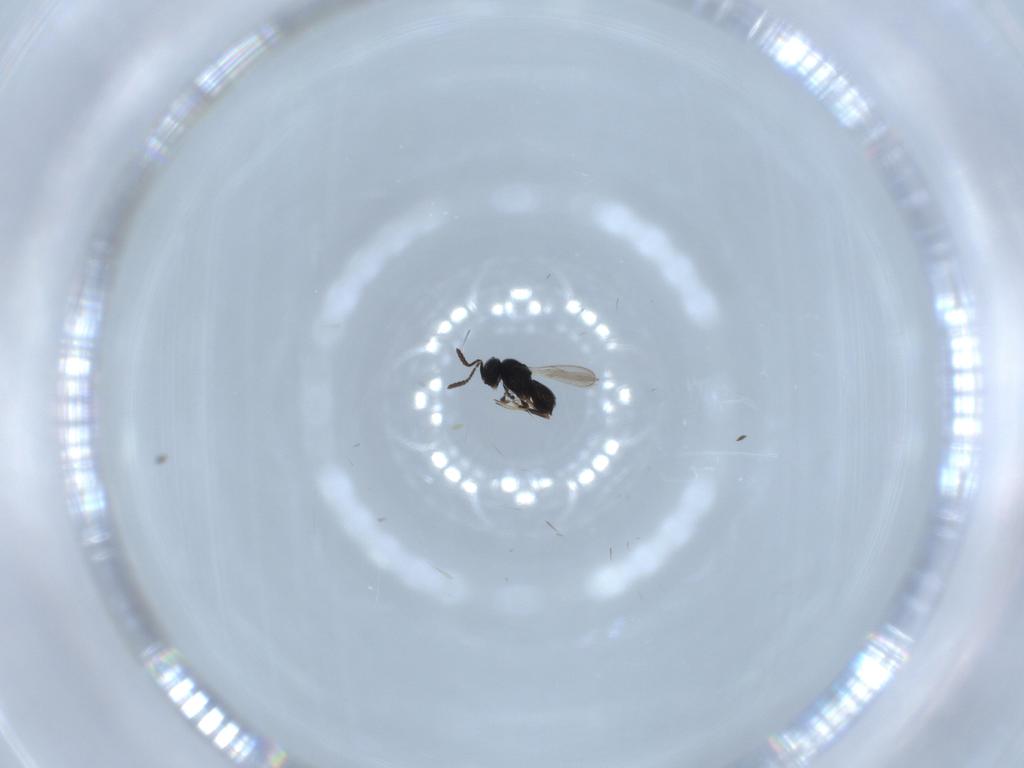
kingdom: Animalia
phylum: Arthropoda
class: Insecta
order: Hymenoptera
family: Scelionidae
